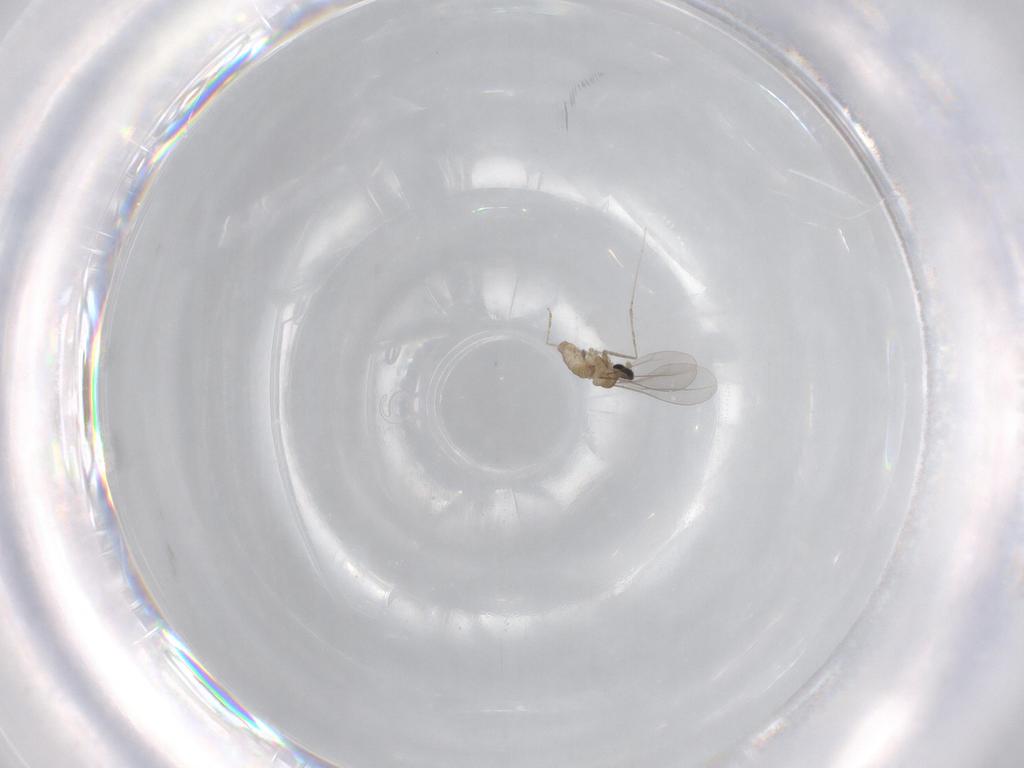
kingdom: Animalia
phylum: Arthropoda
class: Insecta
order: Diptera
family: Cecidomyiidae
